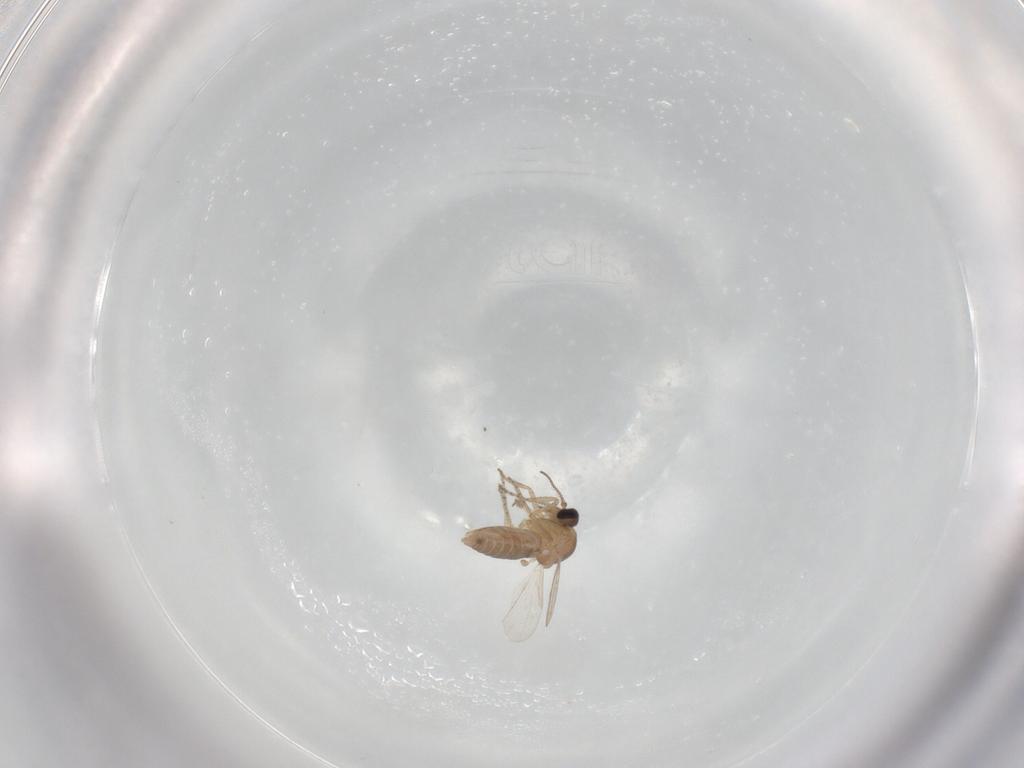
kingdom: Animalia
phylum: Arthropoda
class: Insecta
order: Diptera
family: Ceratopogonidae
